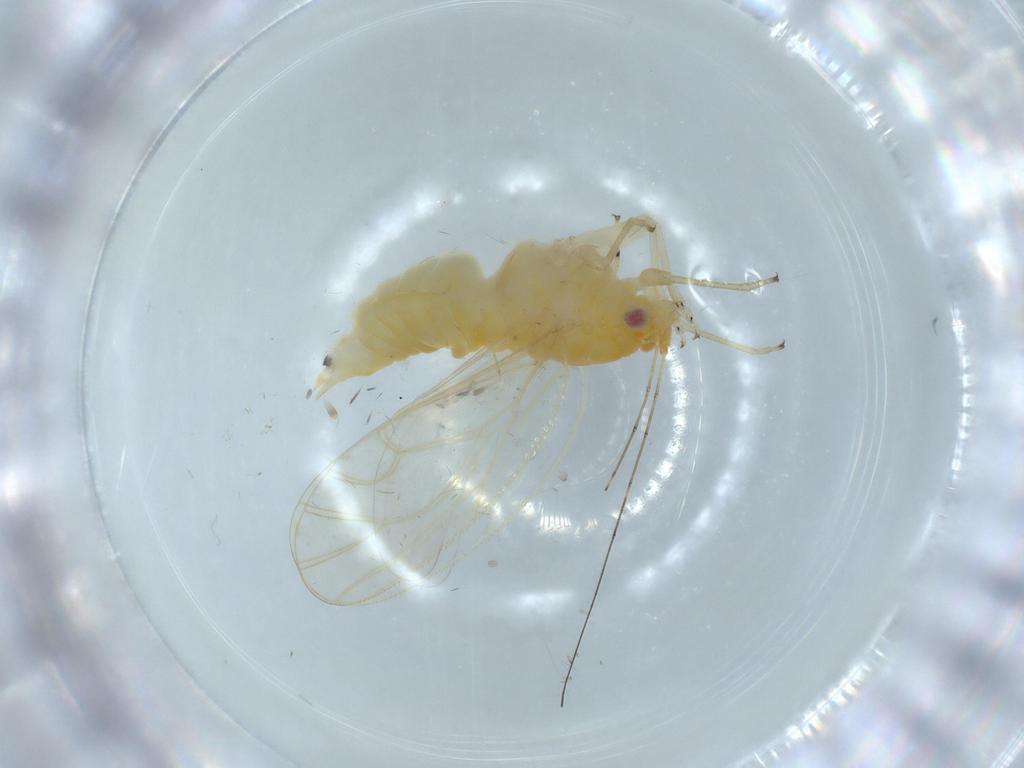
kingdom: Animalia
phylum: Arthropoda
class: Insecta
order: Hemiptera
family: Psyllidae
